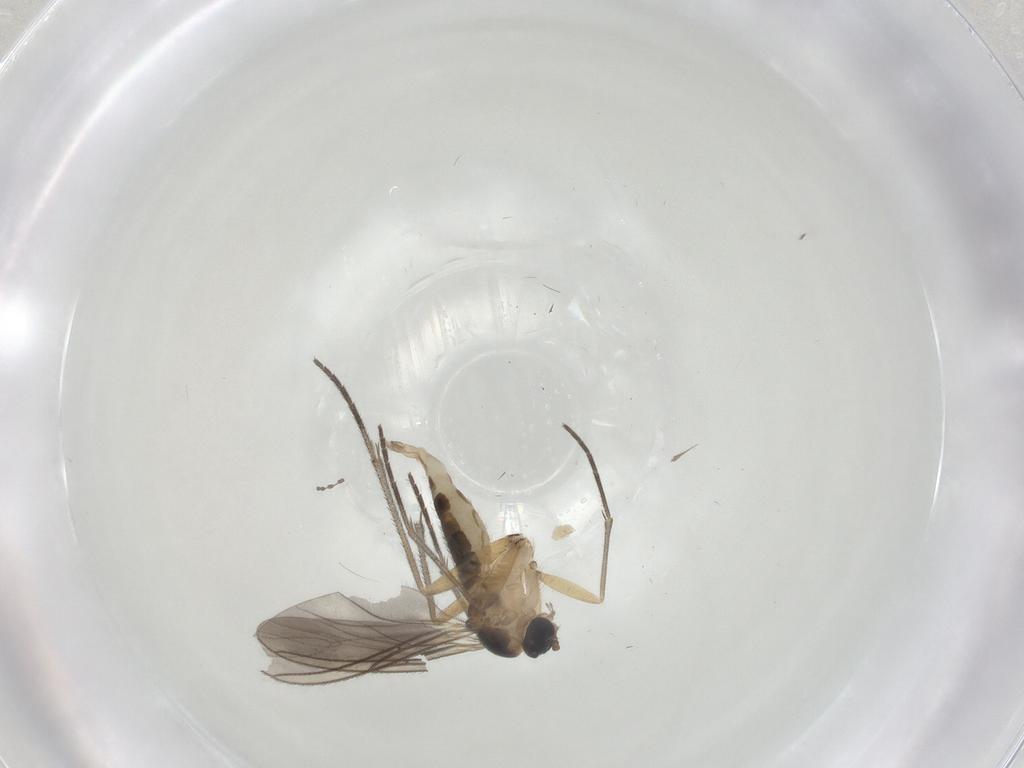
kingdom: Animalia
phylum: Arthropoda
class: Insecta
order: Diptera
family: Sciaridae
